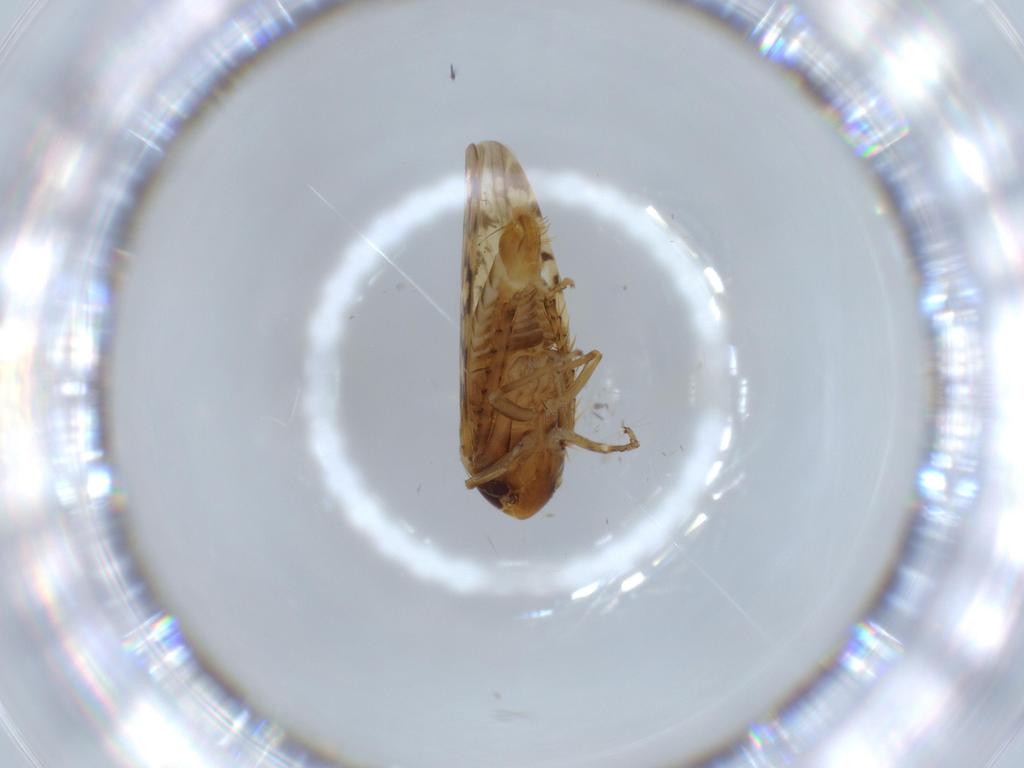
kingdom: Animalia
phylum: Arthropoda
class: Insecta
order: Hemiptera
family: Cicadellidae
